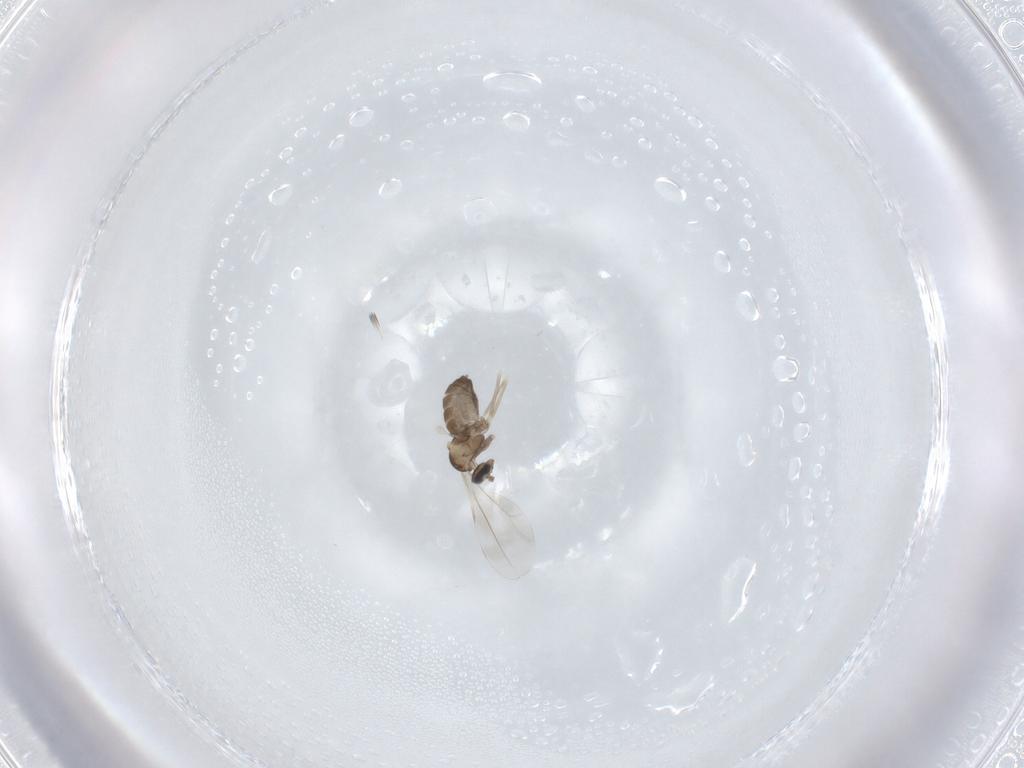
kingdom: Animalia
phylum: Arthropoda
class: Insecta
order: Diptera
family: Cecidomyiidae
